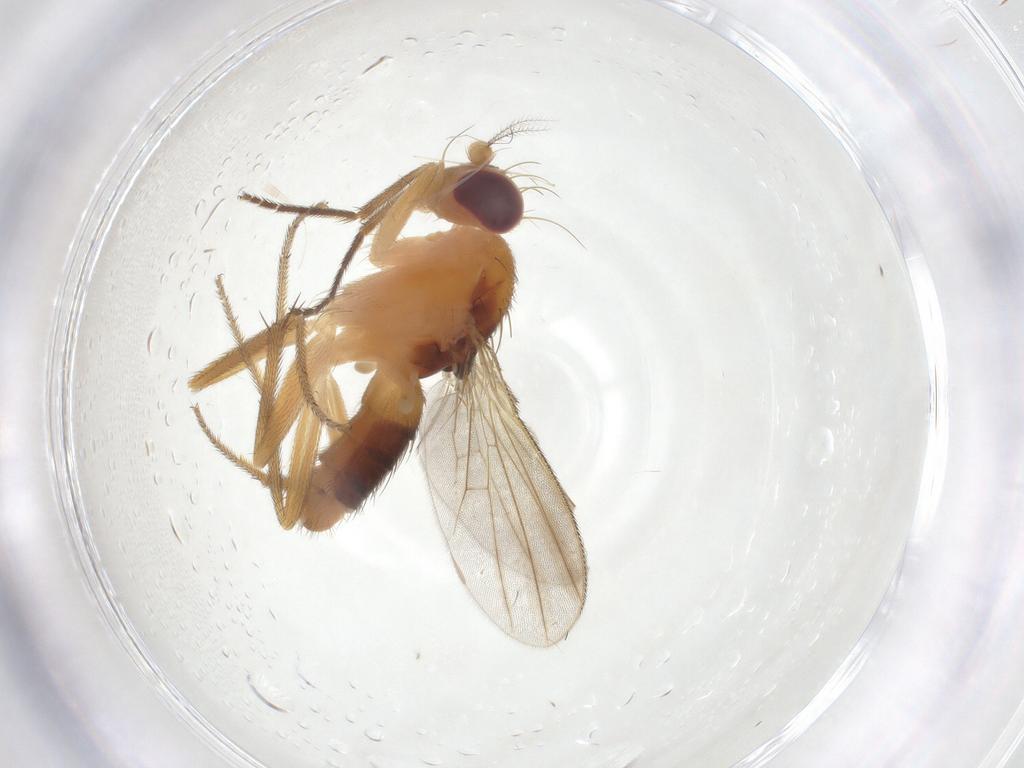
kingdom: Animalia
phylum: Arthropoda
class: Insecta
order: Diptera
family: Clusiidae
